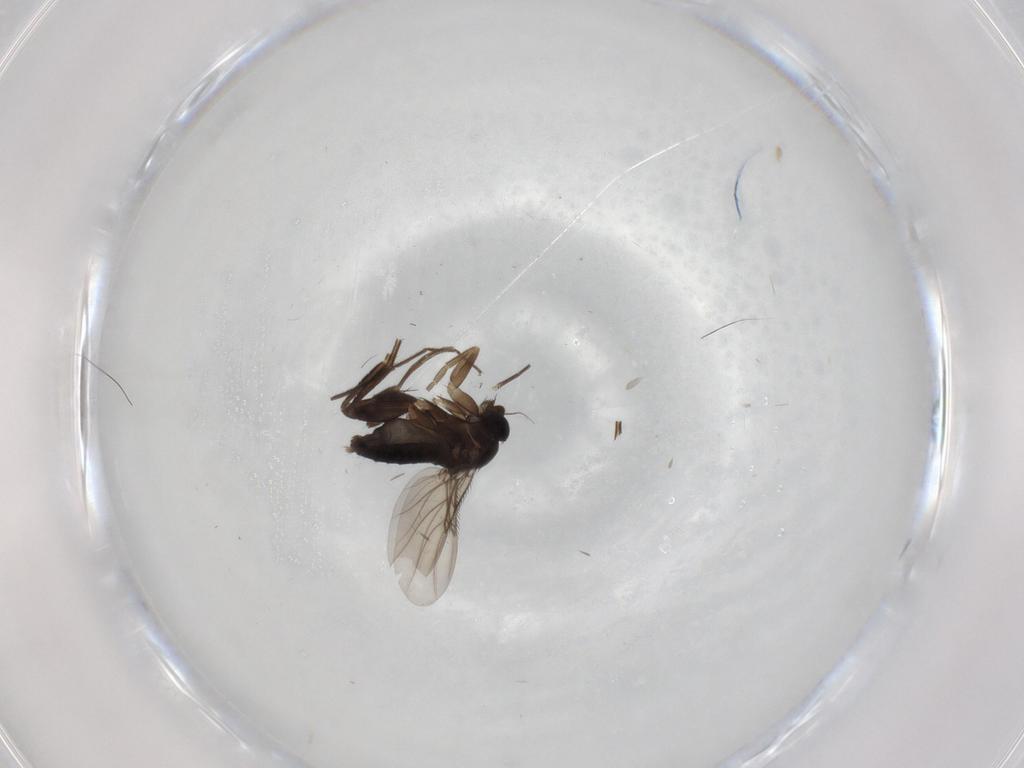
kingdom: Animalia
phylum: Arthropoda
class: Insecta
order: Diptera
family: Phoridae
